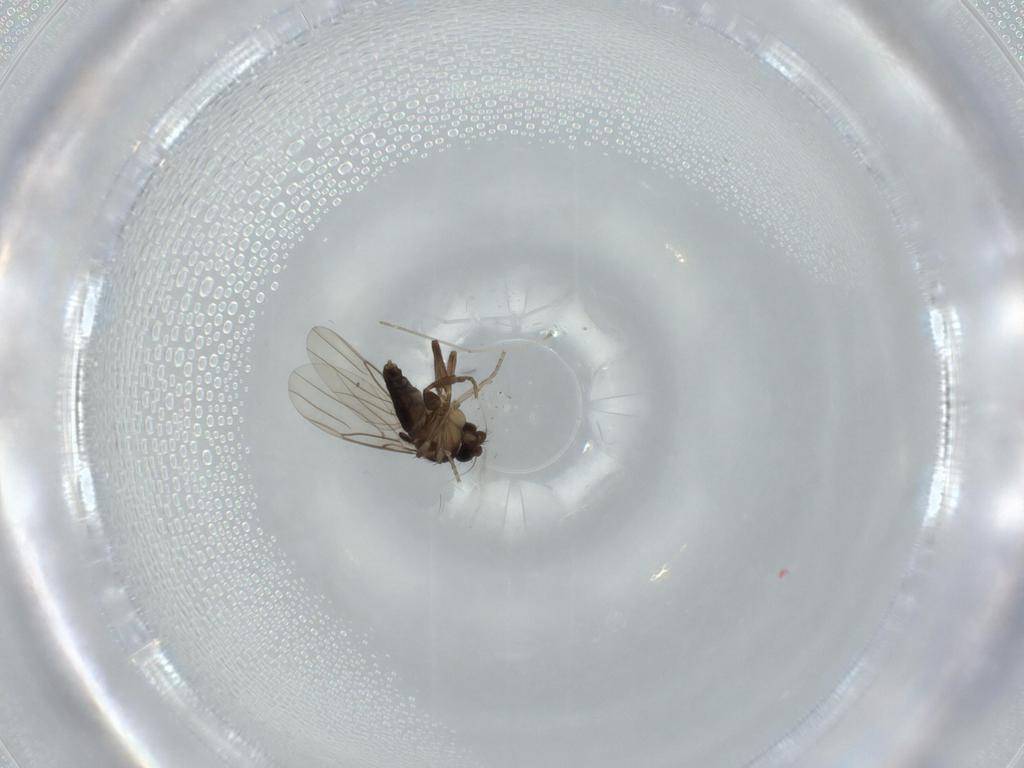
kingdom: Animalia
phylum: Arthropoda
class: Insecta
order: Diptera
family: Phoridae
